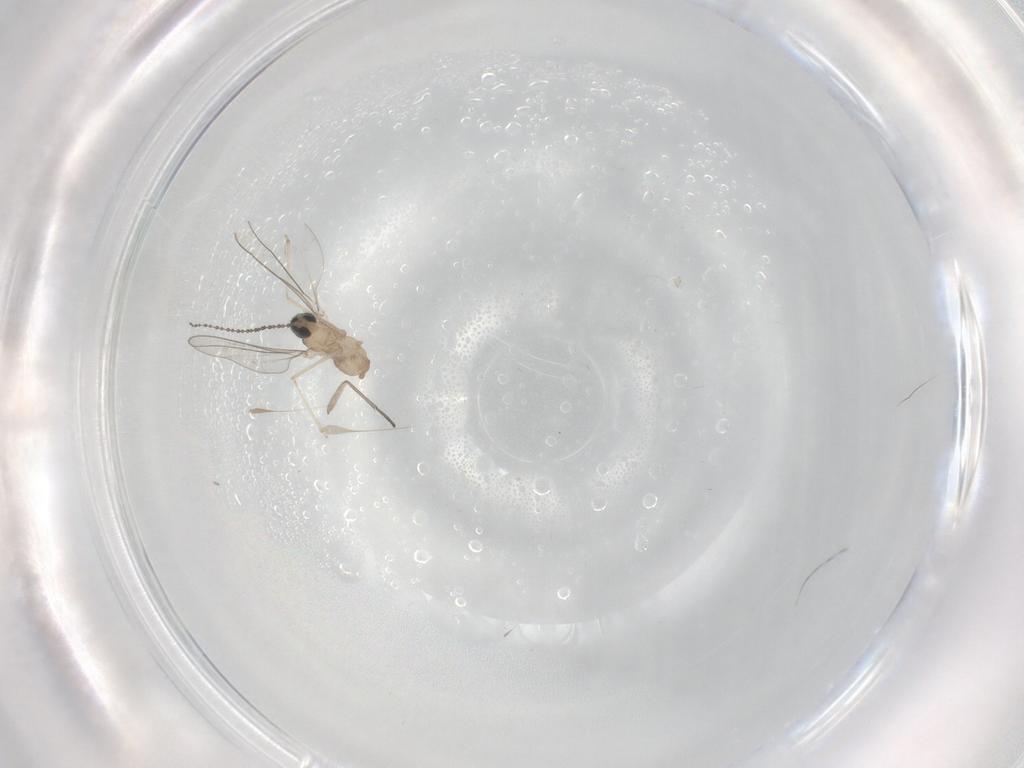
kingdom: Animalia
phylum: Arthropoda
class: Insecta
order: Diptera
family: Cecidomyiidae
